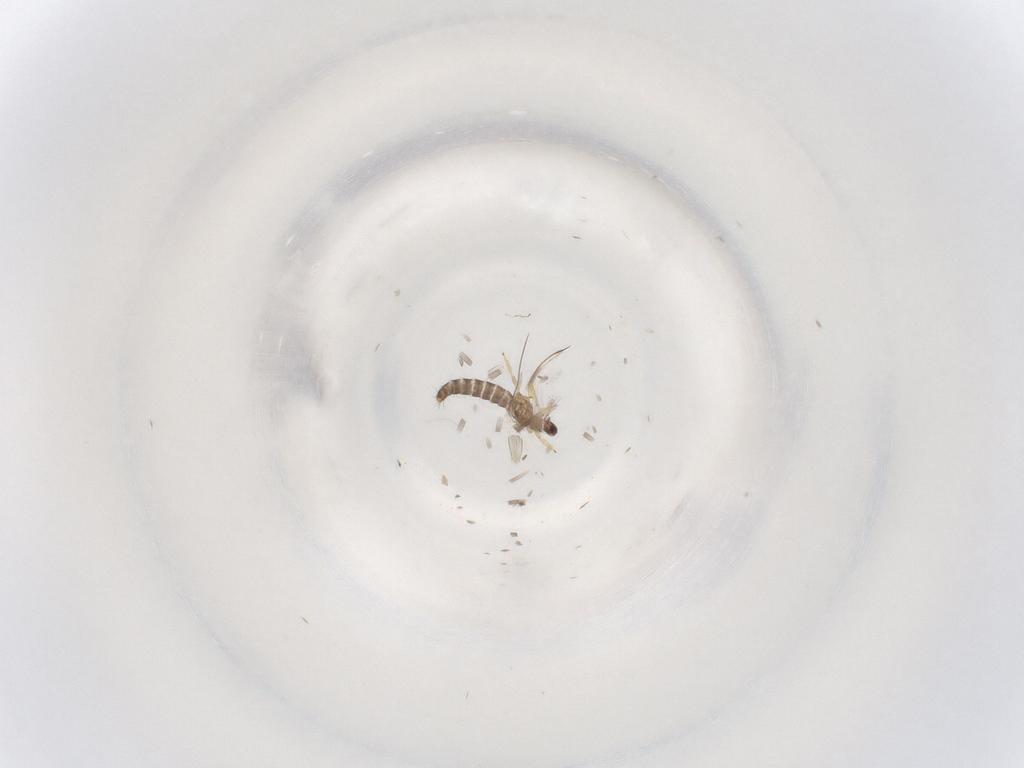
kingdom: Animalia
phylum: Arthropoda
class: Insecta
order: Thysanoptera
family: Thripidae
